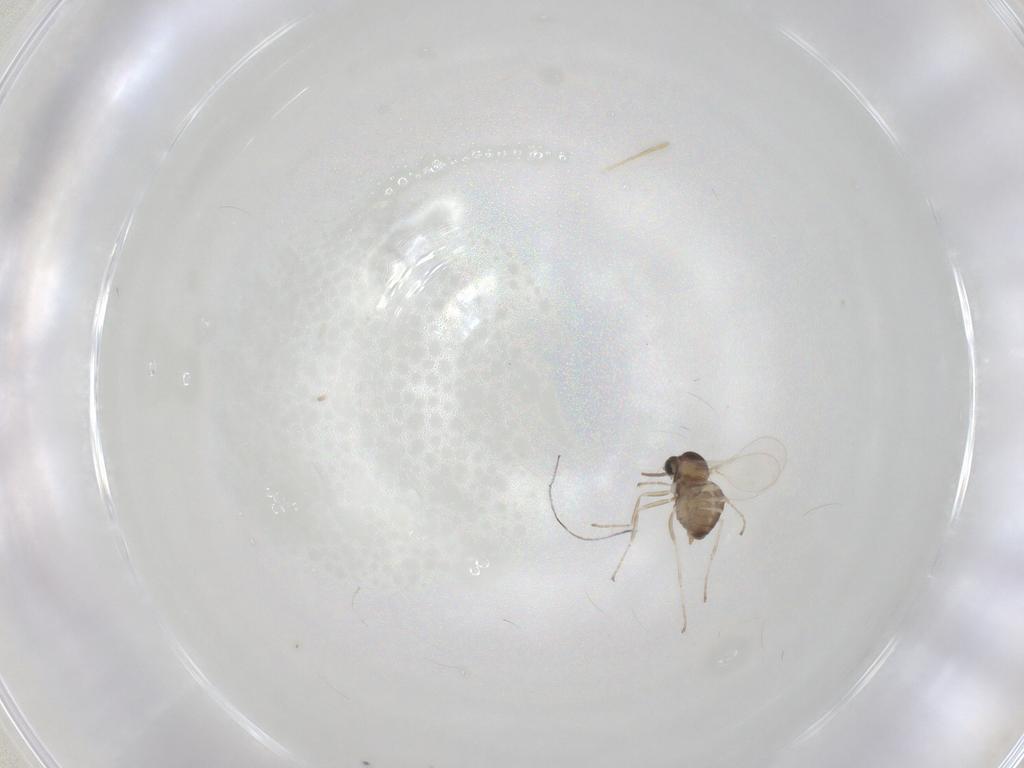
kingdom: Animalia
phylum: Arthropoda
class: Insecta
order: Diptera
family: Sciaridae
